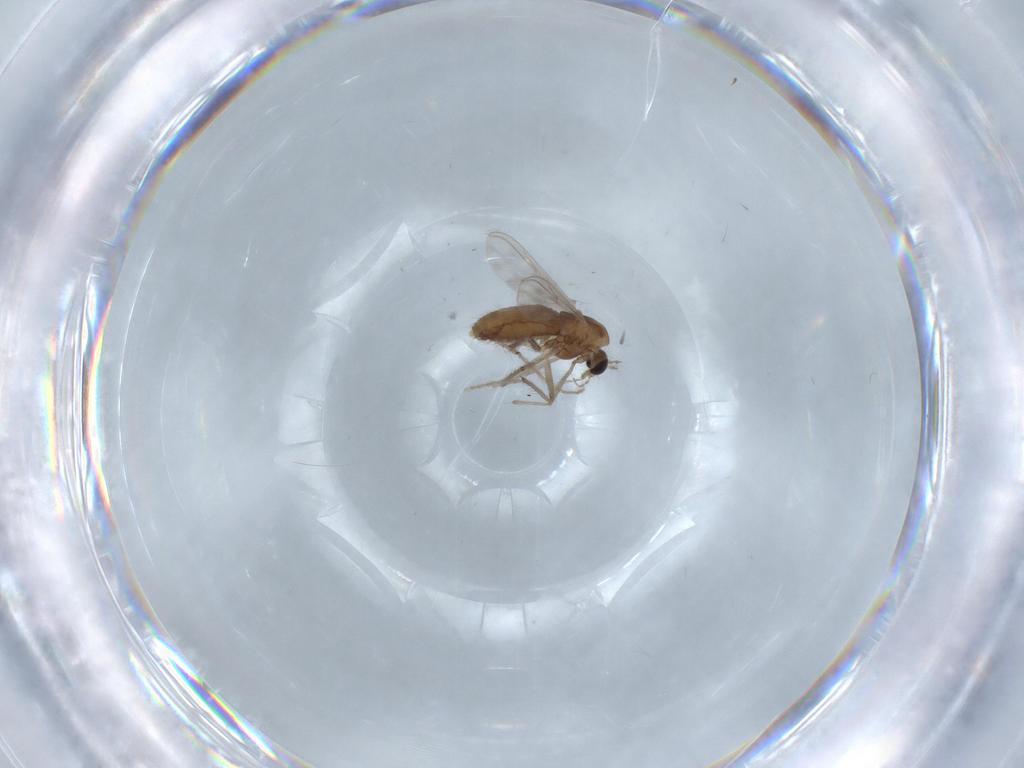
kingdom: Animalia
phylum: Arthropoda
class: Insecta
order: Diptera
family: Chironomidae
